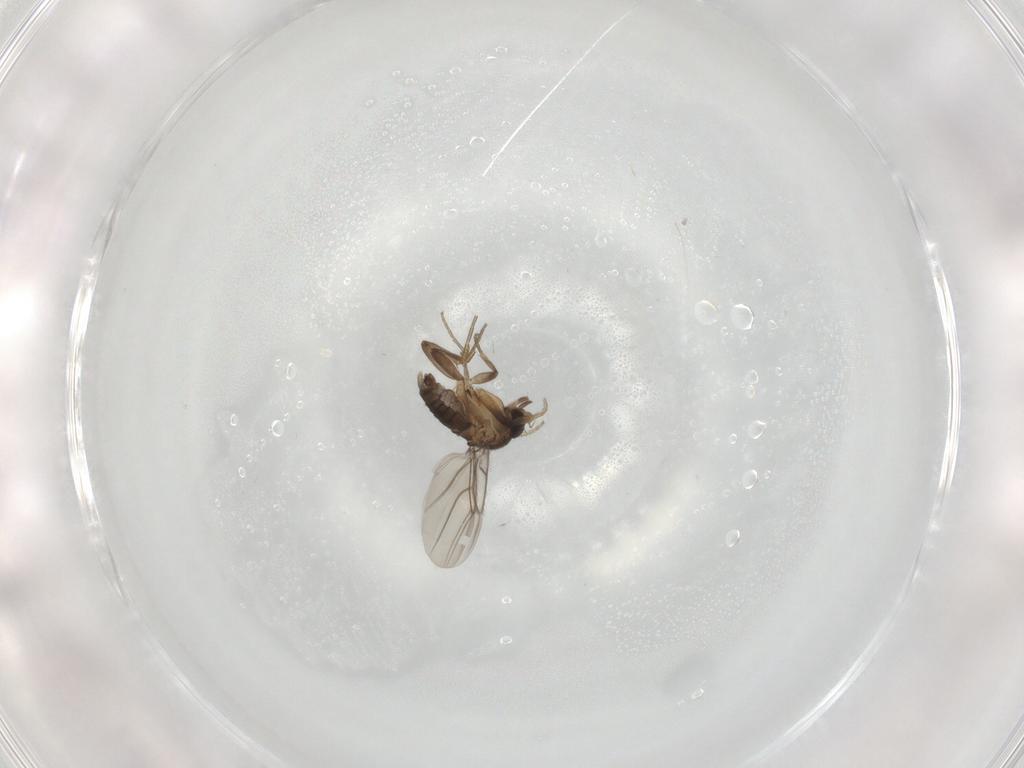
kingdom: Animalia
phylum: Arthropoda
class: Insecta
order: Diptera
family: Phoridae
